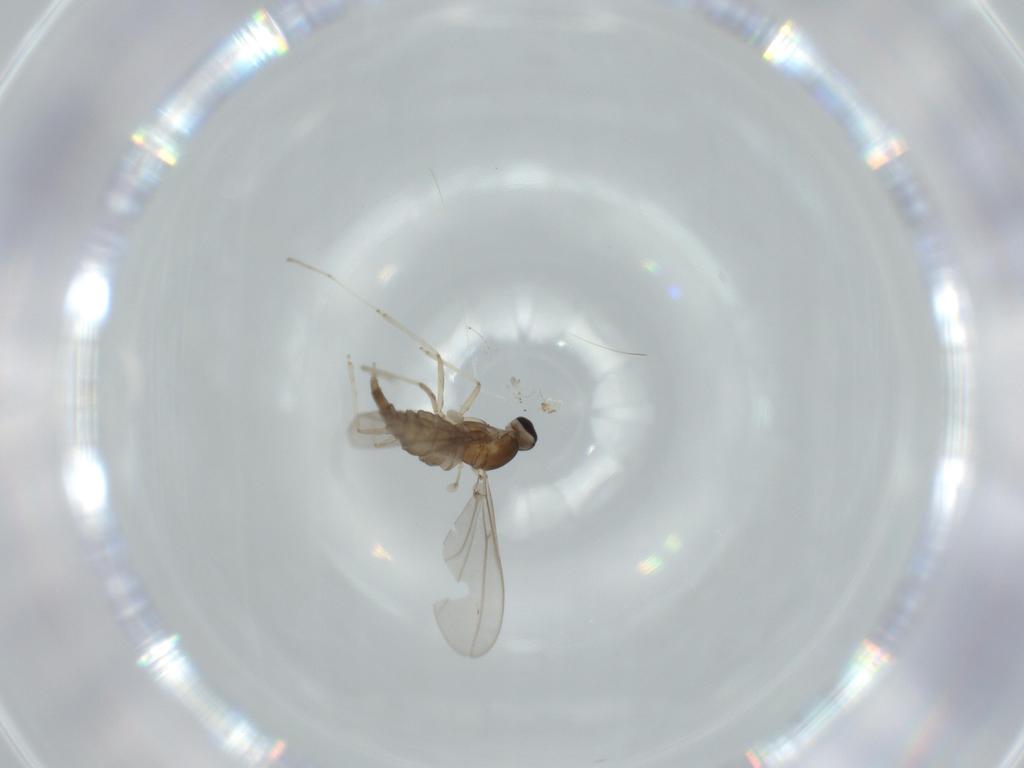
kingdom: Animalia
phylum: Arthropoda
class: Insecta
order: Diptera
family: Cecidomyiidae
